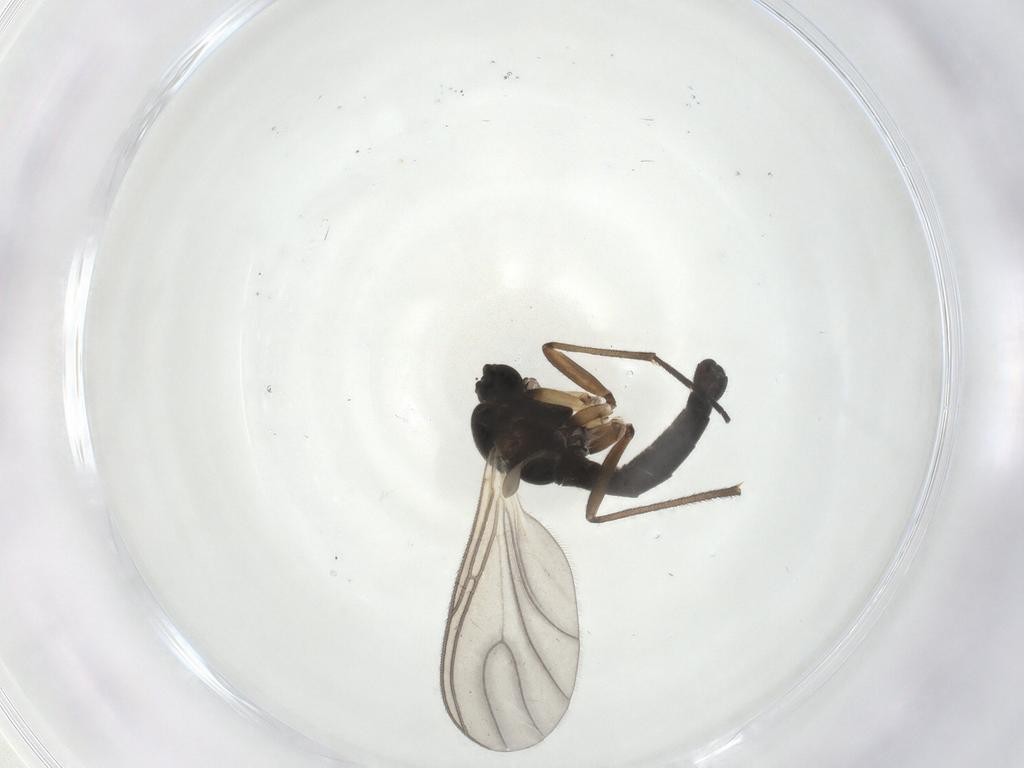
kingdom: Animalia
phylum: Arthropoda
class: Insecta
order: Diptera
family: Sciaridae
